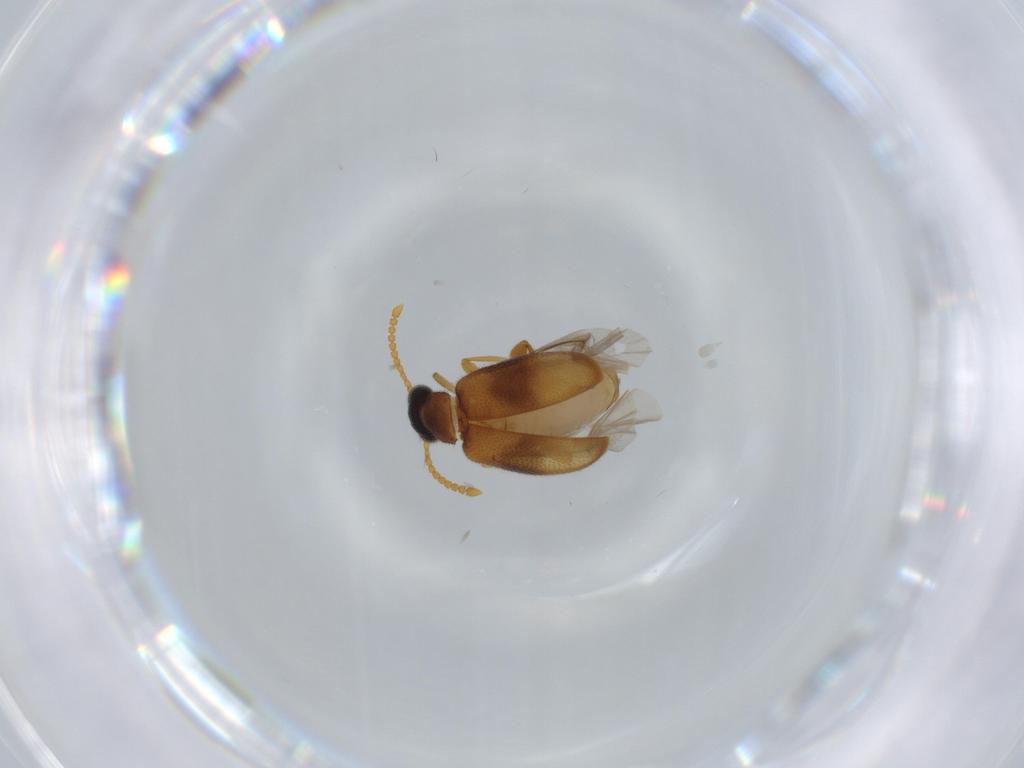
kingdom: Animalia
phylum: Arthropoda
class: Insecta
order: Coleoptera
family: Aderidae
